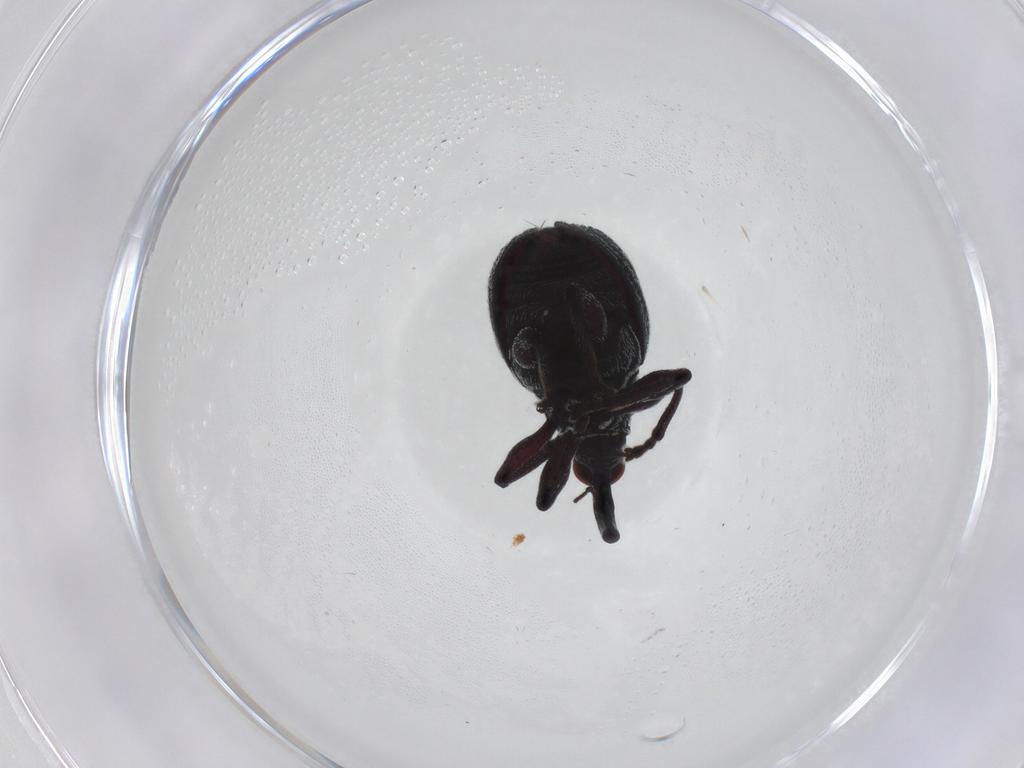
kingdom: Animalia
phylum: Arthropoda
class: Insecta
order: Coleoptera
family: Brentidae
